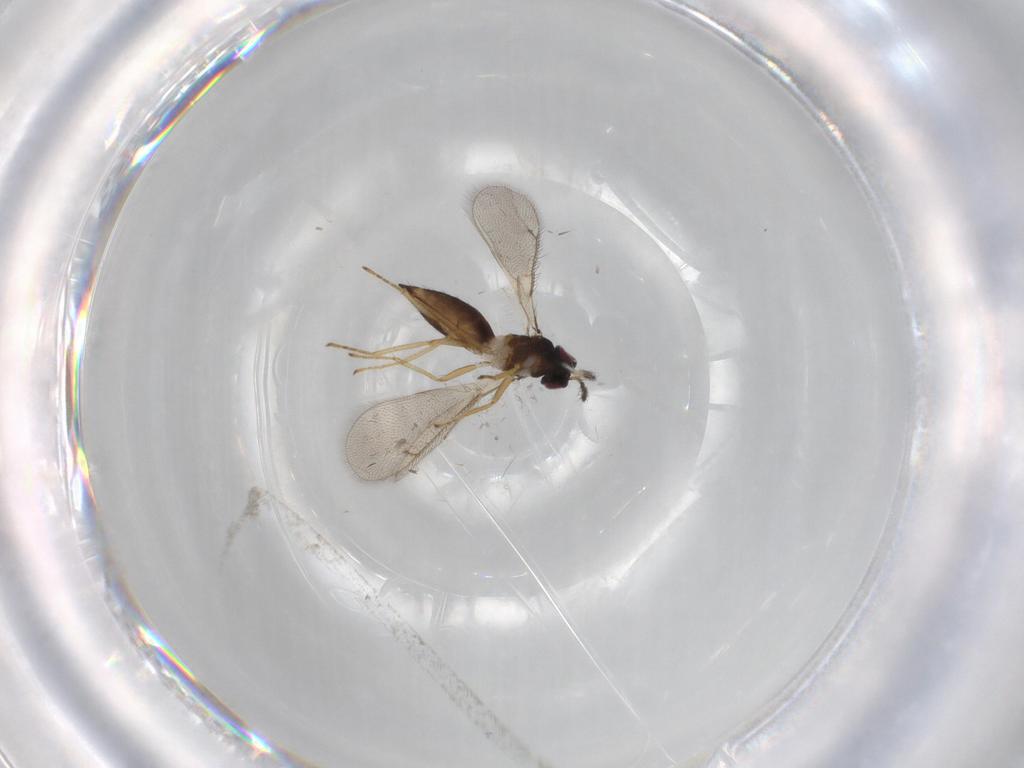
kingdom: Animalia
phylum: Arthropoda
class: Insecta
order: Hymenoptera
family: Eulophidae
